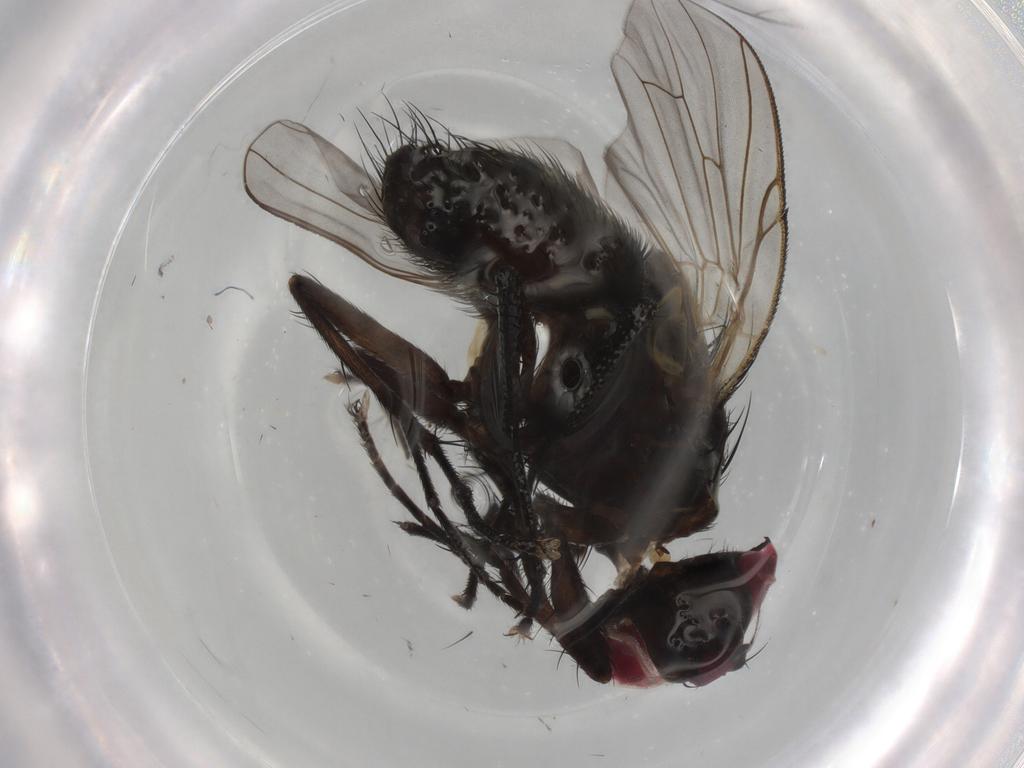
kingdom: Animalia
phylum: Arthropoda
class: Insecta
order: Diptera
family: Muscidae
